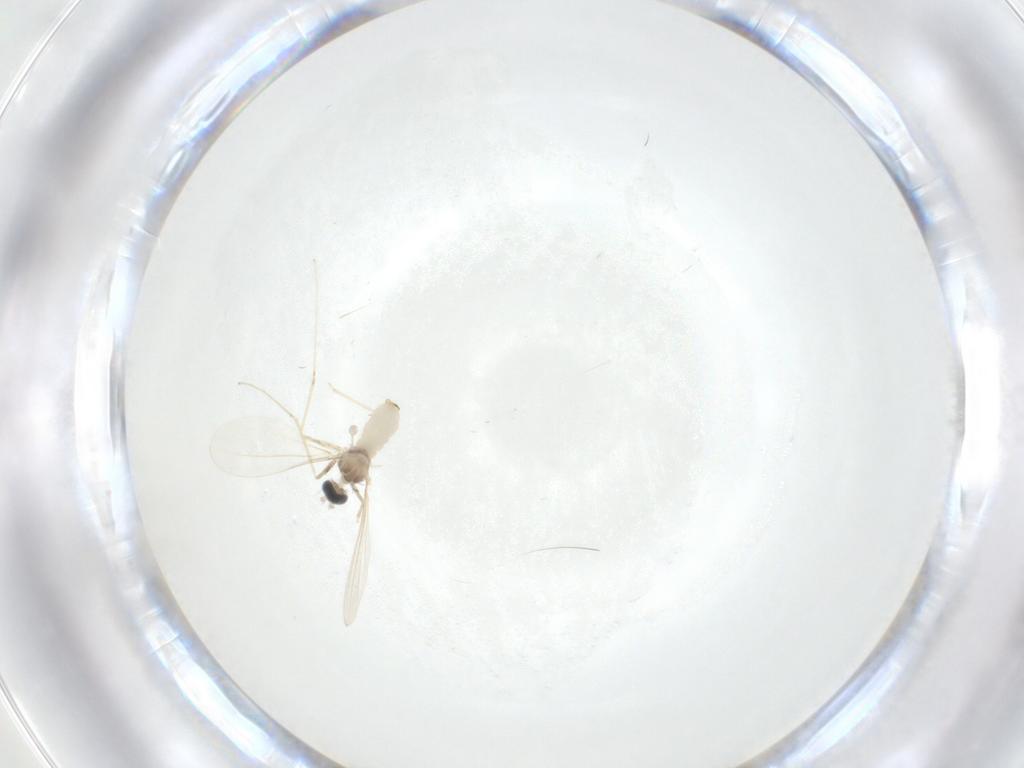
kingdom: Animalia
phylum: Arthropoda
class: Insecta
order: Diptera
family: Cecidomyiidae
